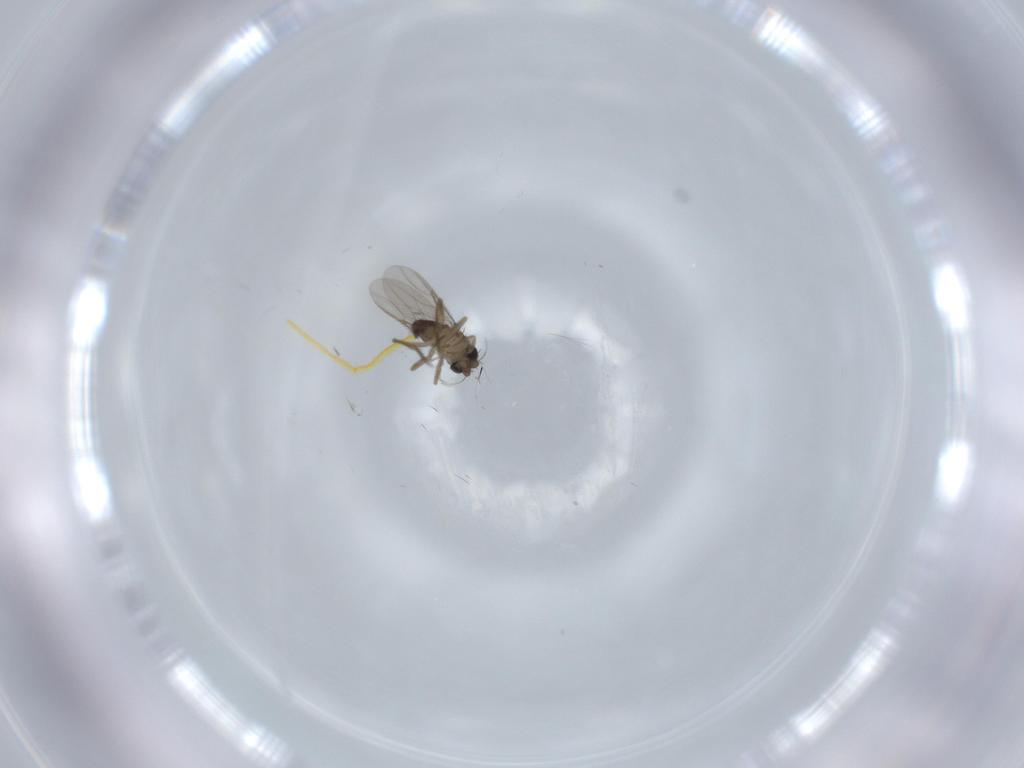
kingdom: Animalia
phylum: Arthropoda
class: Insecta
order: Diptera
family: Phoridae
